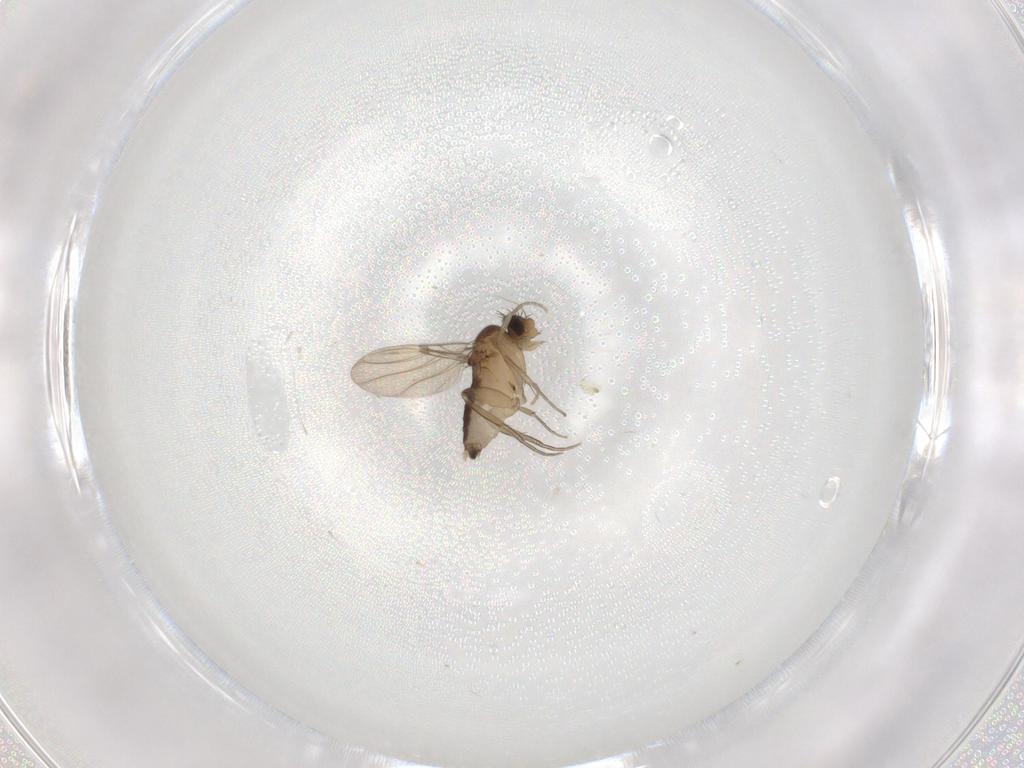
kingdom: Animalia
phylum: Arthropoda
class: Insecta
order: Diptera
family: Phoridae
